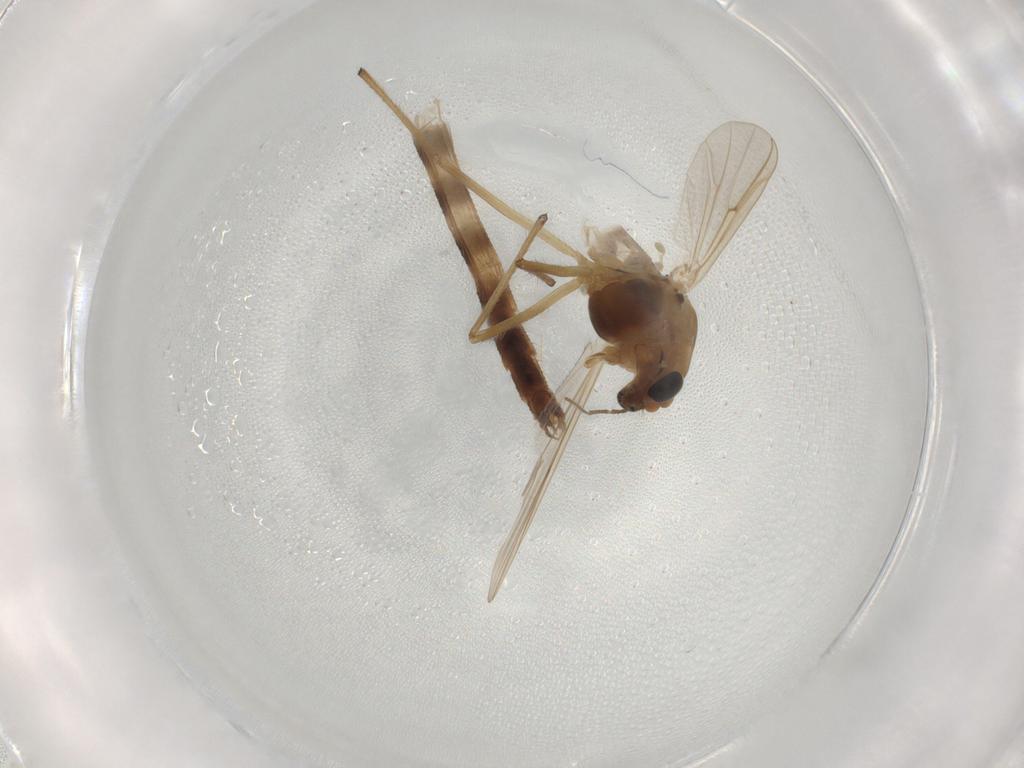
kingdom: Animalia
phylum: Arthropoda
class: Insecta
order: Diptera
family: Chironomidae
